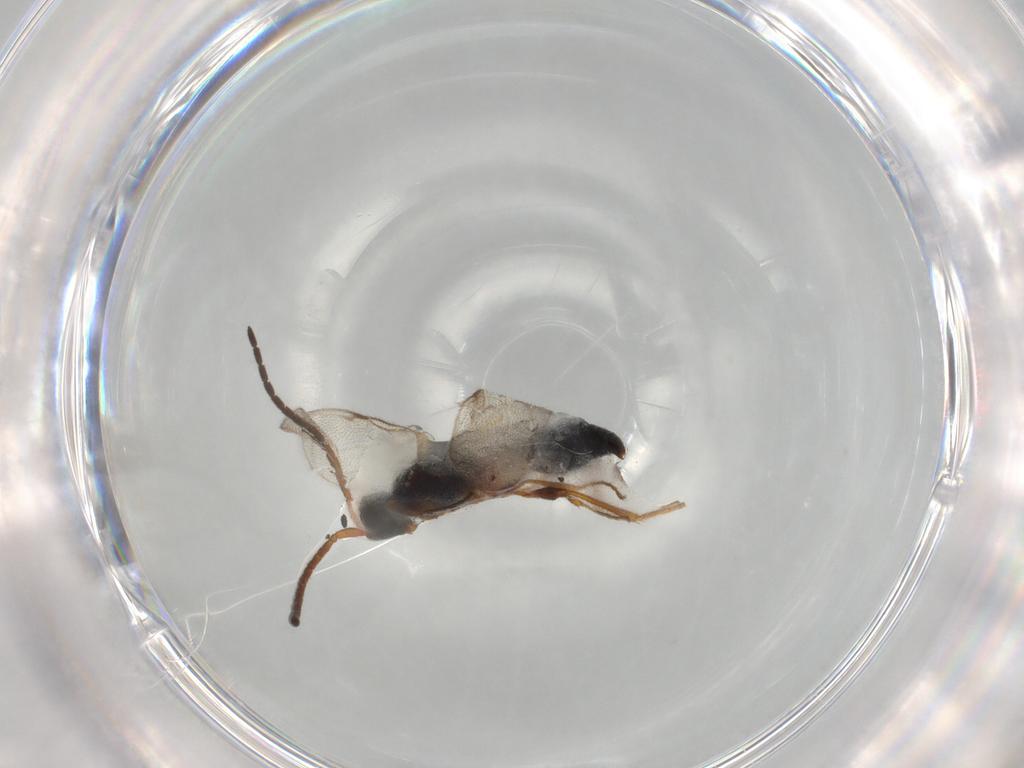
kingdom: Animalia
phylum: Arthropoda
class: Insecta
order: Hymenoptera
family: Diapriidae
